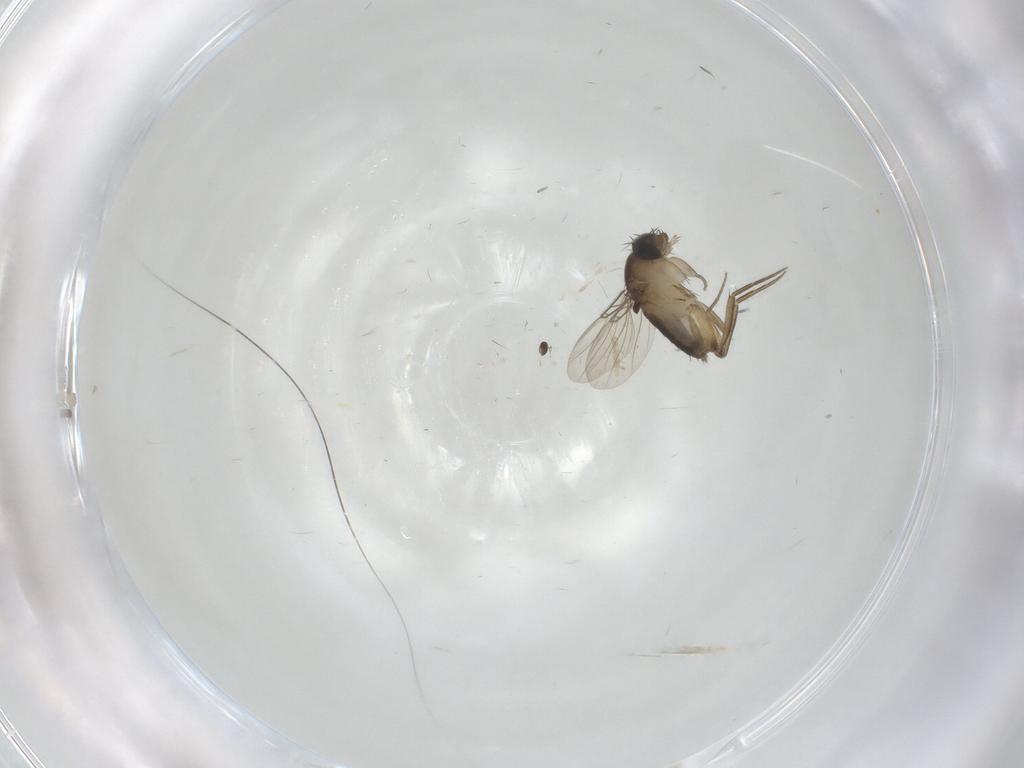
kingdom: Animalia
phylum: Arthropoda
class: Insecta
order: Diptera
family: Phoridae
